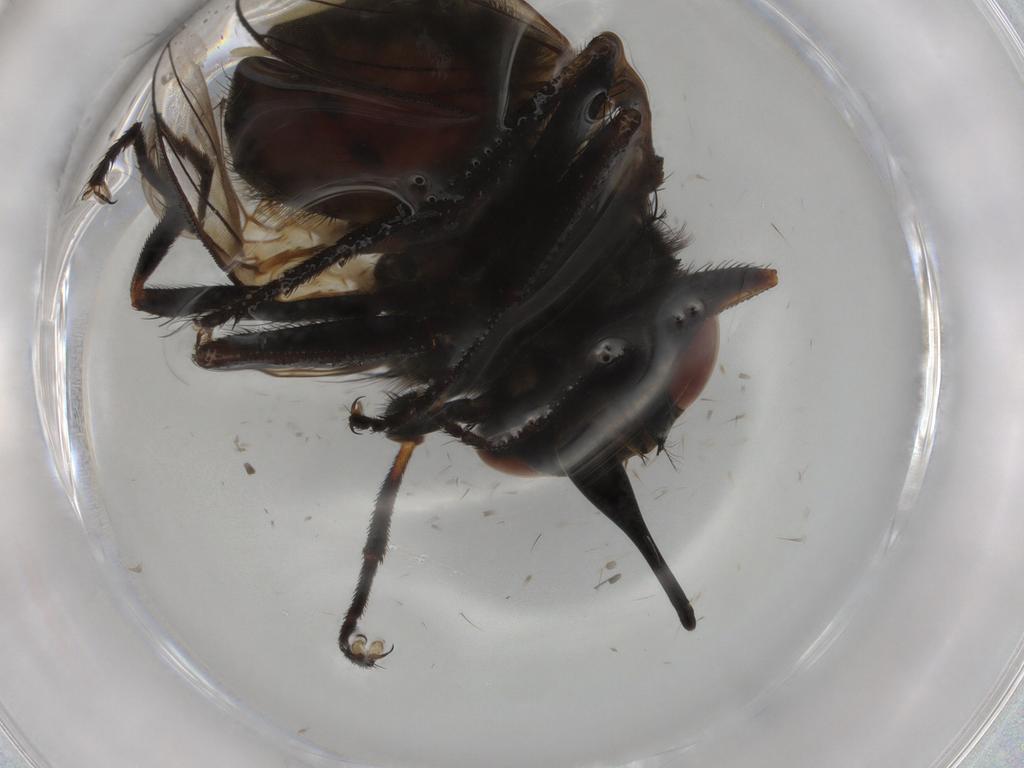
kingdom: Animalia
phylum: Arthropoda
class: Insecta
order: Diptera
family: Muscidae
